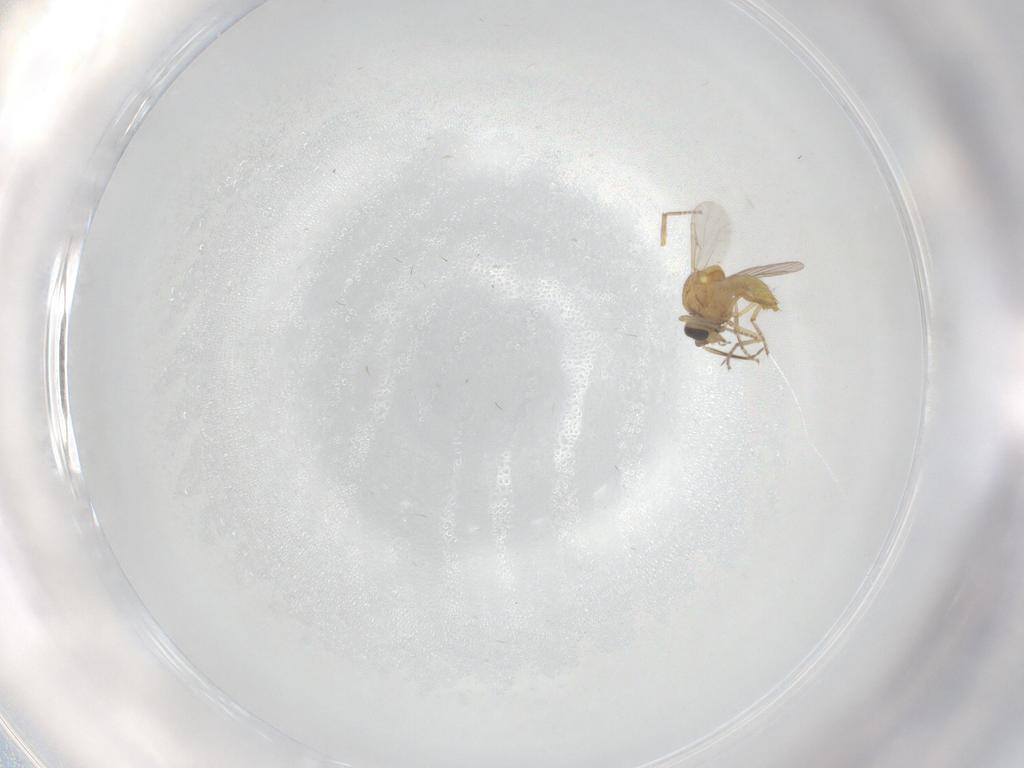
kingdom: Animalia
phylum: Arthropoda
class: Insecta
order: Diptera
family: Ceratopogonidae
